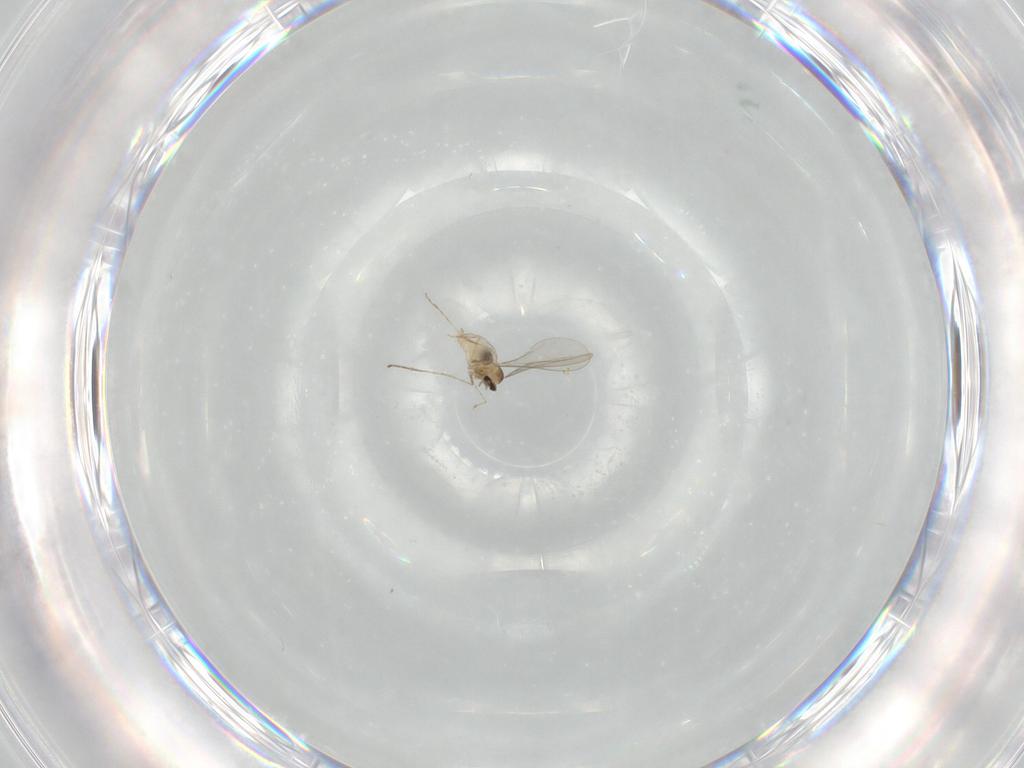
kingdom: Animalia
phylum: Arthropoda
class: Insecta
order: Diptera
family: Cecidomyiidae
